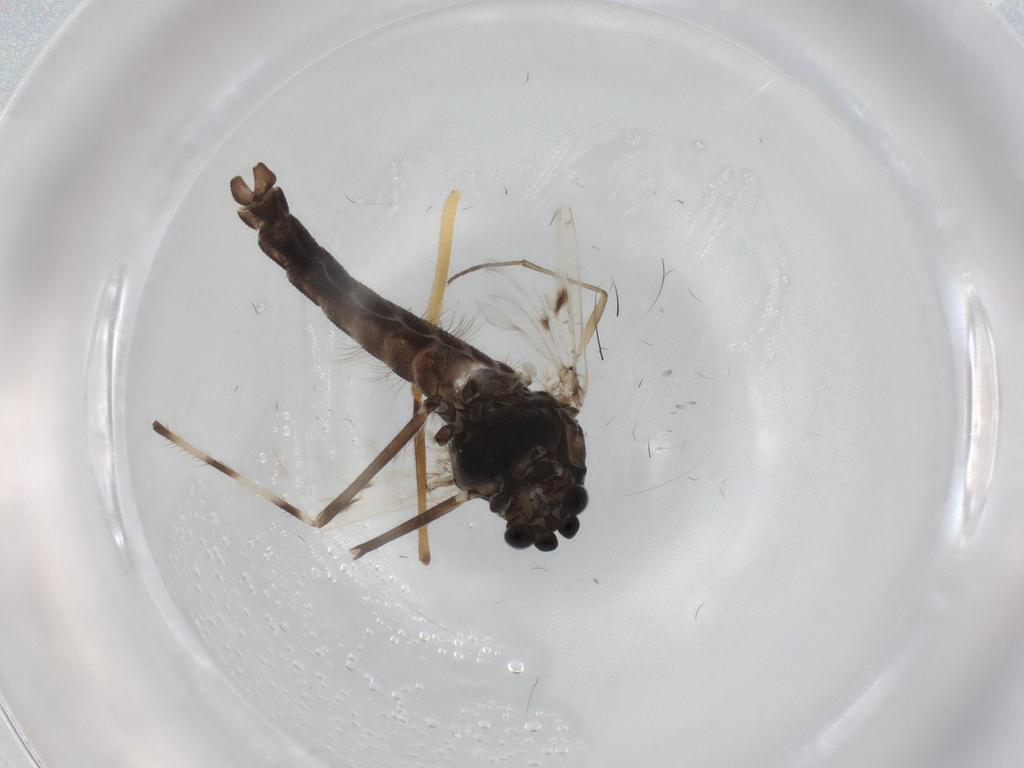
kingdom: Animalia
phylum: Arthropoda
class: Insecta
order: Diptera
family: Chironomidae
